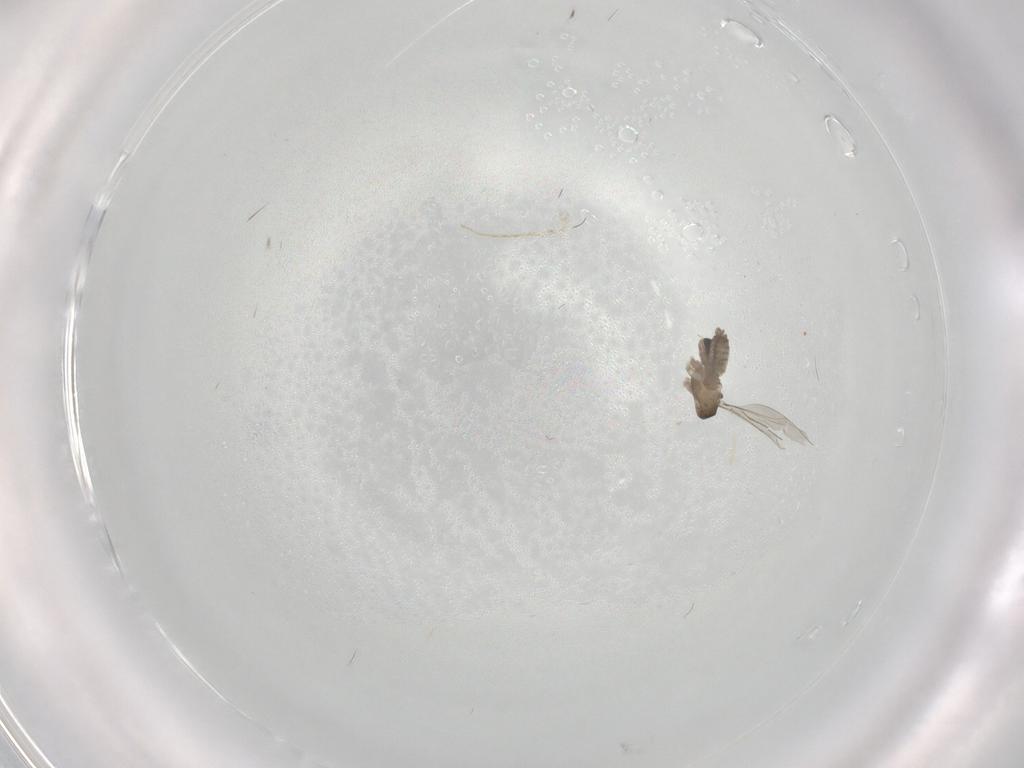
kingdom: Animalia
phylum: Arthropoda
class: Insecta
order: Diptera
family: Cecidomyiidae
